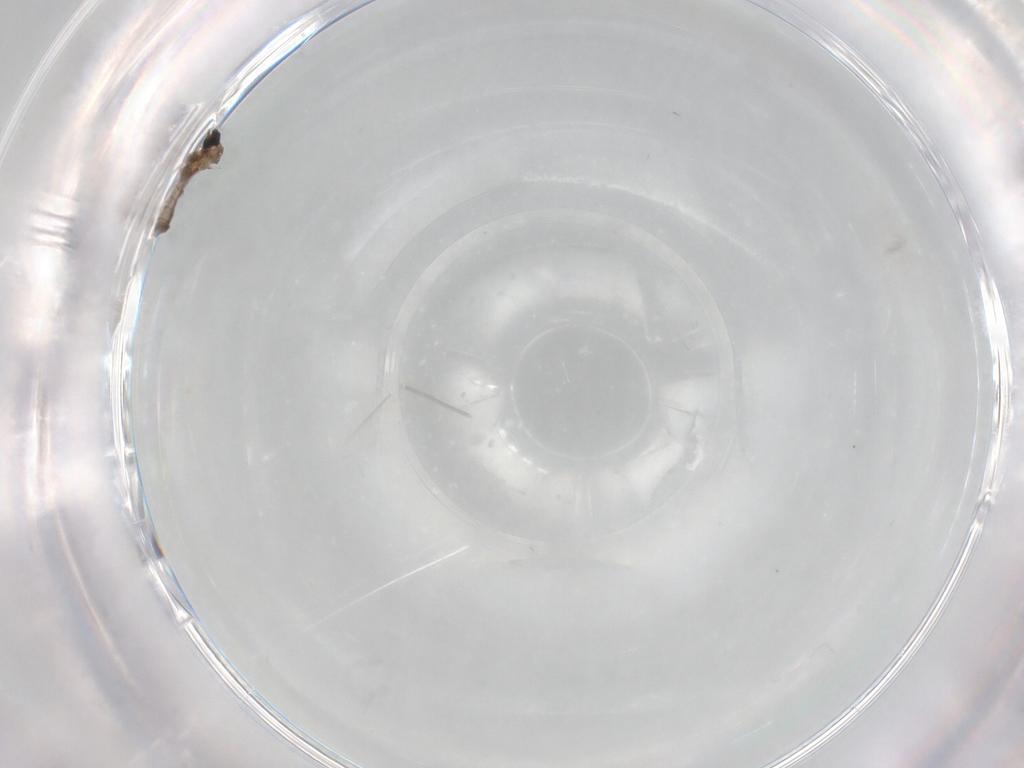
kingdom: Animalia
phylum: Arthropoda
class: Insecta
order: Diptera
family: Cecidomyiidae
